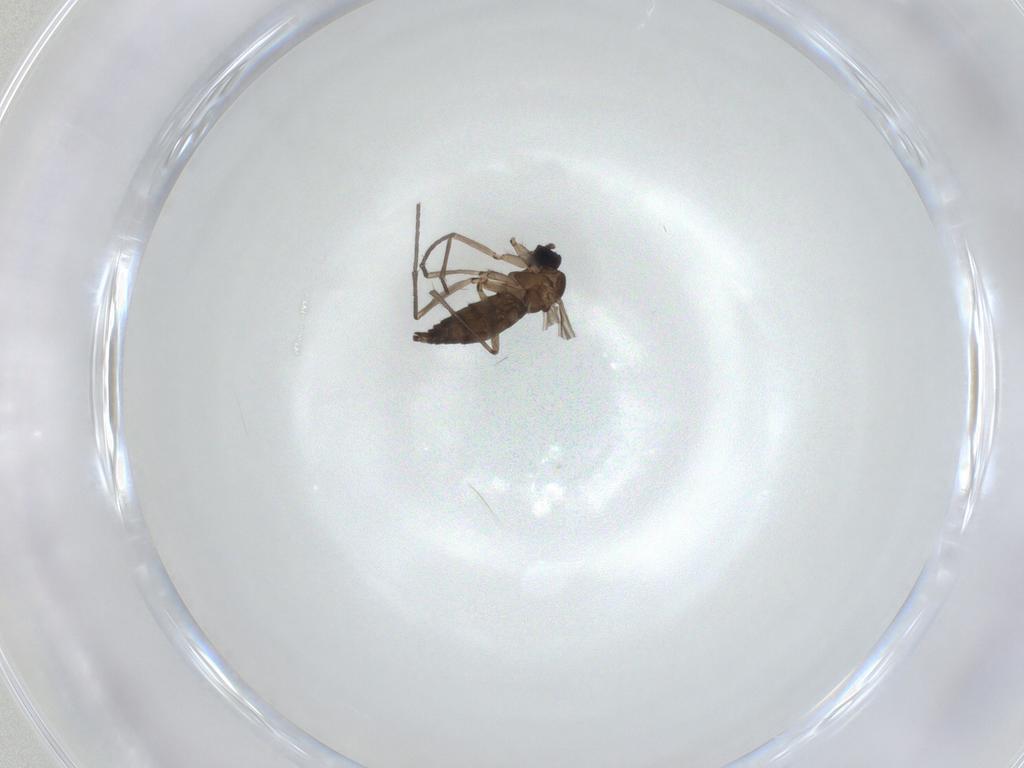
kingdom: Animalia
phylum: Arthropoda
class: Insecta
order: Diptera
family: Sciaridae
